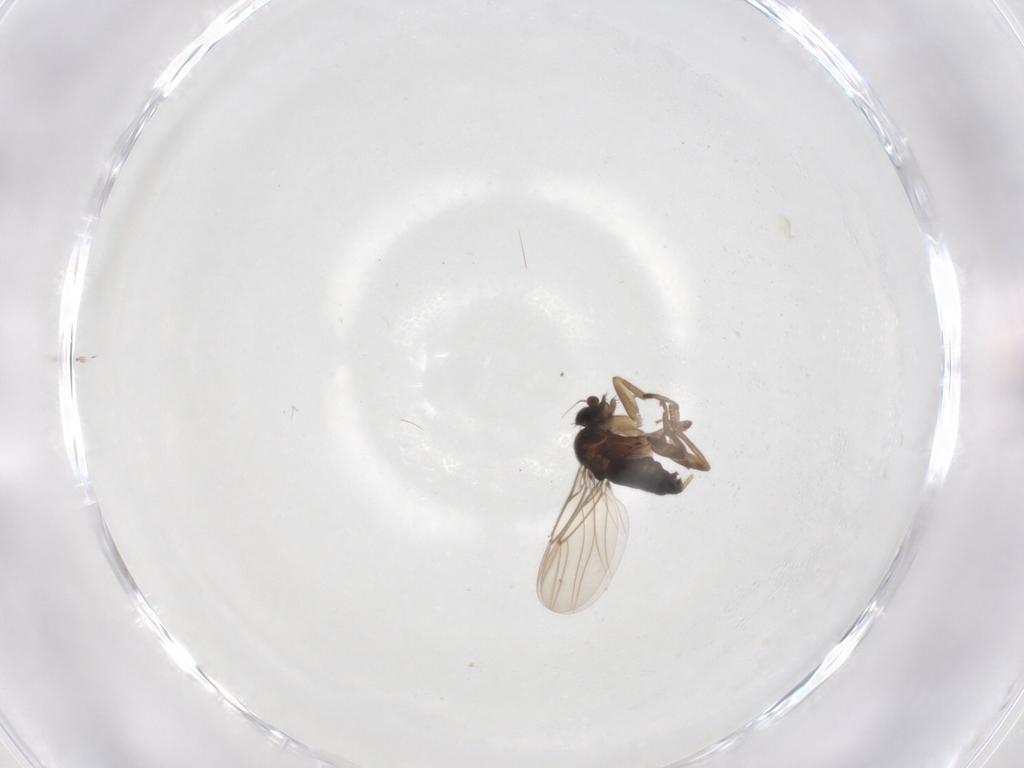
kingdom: Animalia
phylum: Arthropoda
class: Insecta
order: Diptera
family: Phoridae
